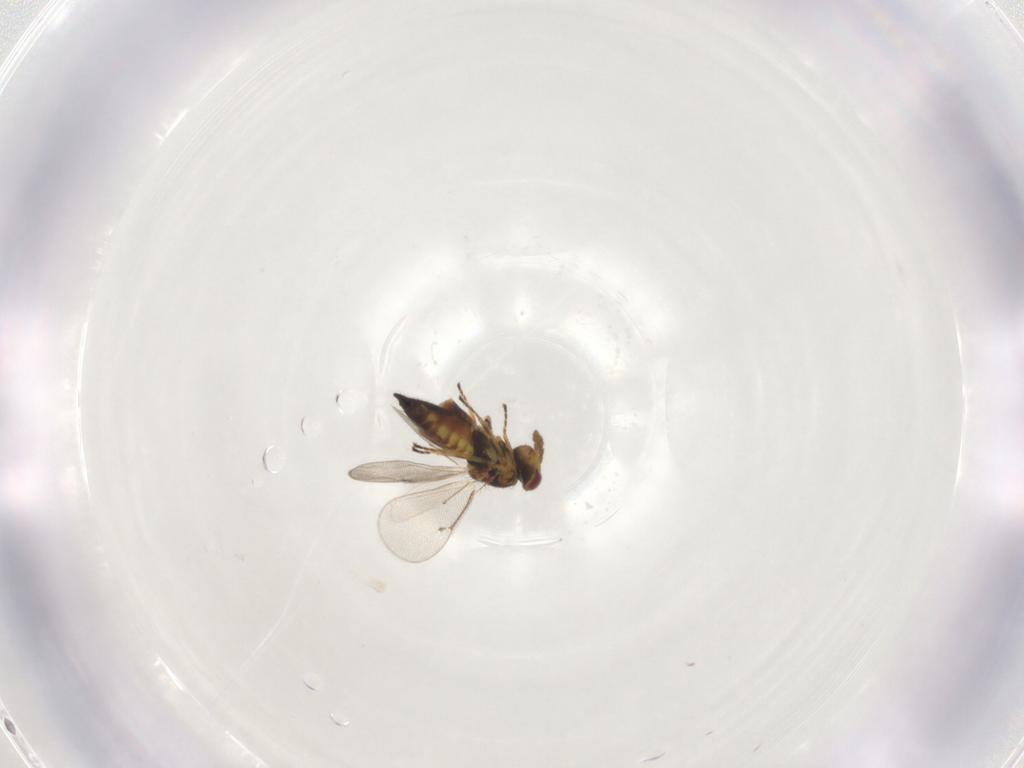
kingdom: Animalia
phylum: Arthropoda
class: Insecta
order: Hymenoptera
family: Eulophidae
